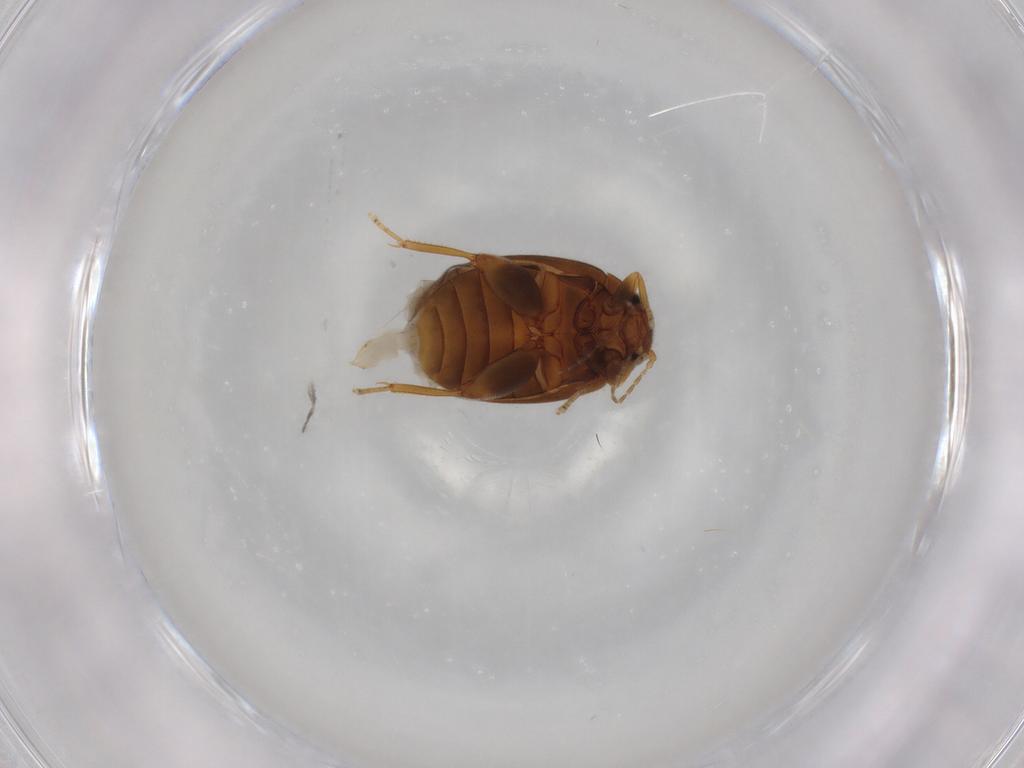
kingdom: Animalia
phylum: Arthropoda
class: Insecta
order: Coleoptera
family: Scirtidae
